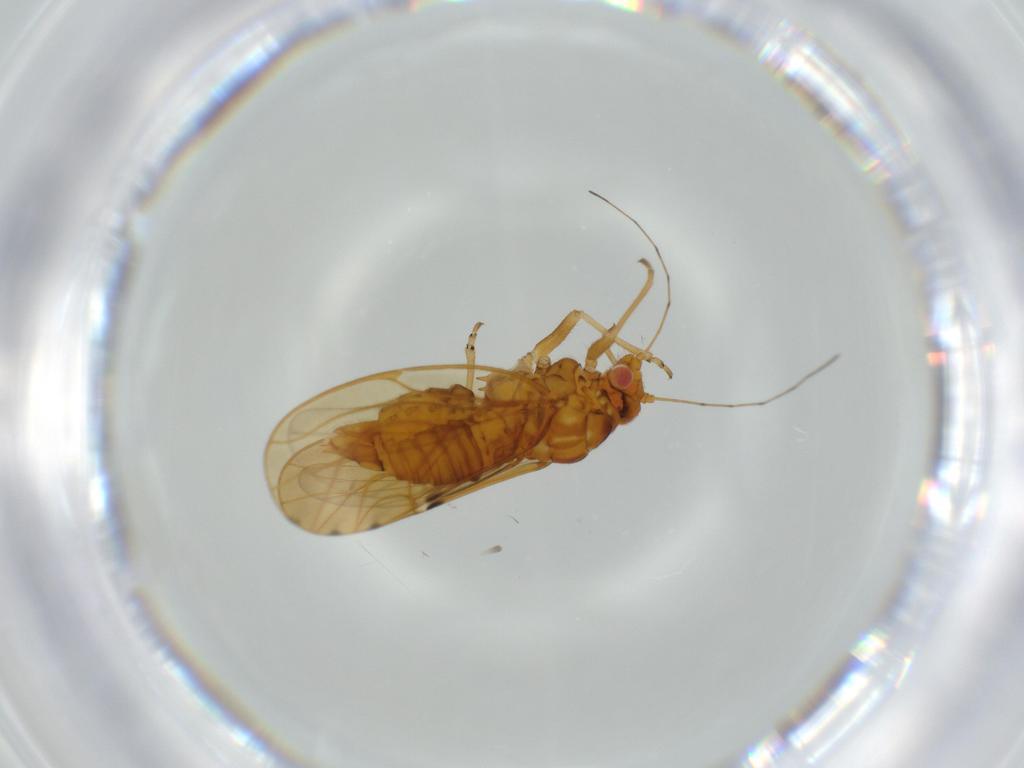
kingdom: Animalia
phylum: Arthropoda
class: Insecta
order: Hemiptera
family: Psylloidea_incertae_sedis
